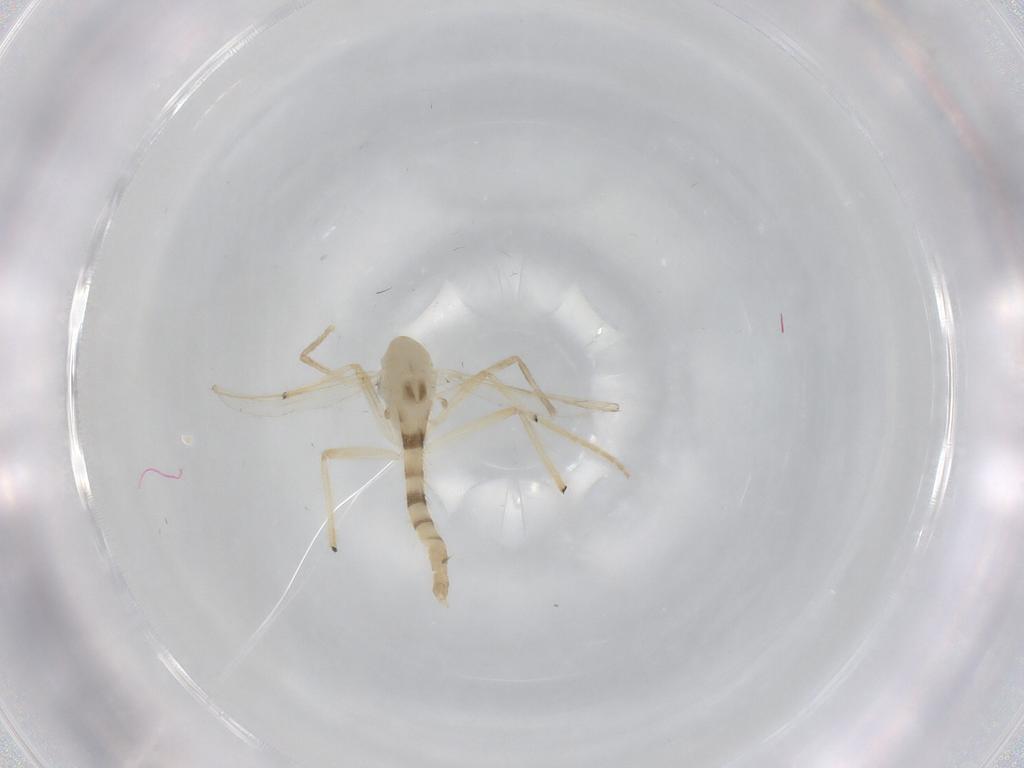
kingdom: Animalia
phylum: Arthropoda
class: Insecta
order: Diptera
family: Chironomidae
